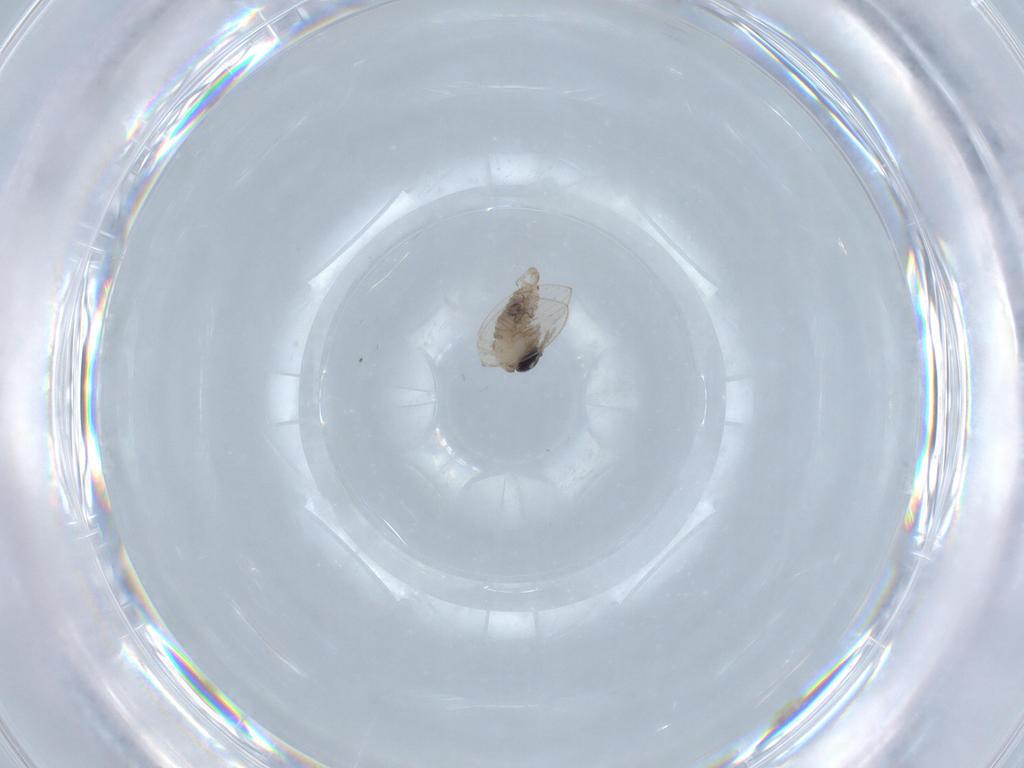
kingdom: Animalia
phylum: Arthropoda
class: Insecta
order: Diptera
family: Psychodidae
